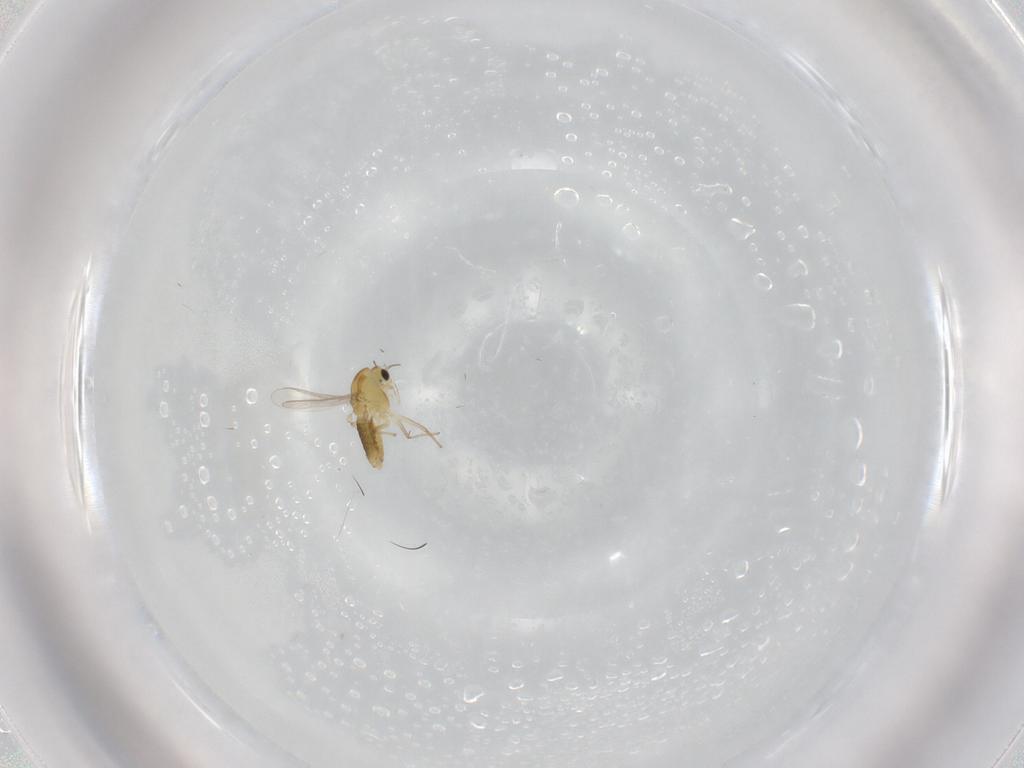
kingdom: Animalia
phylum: Arthropoda
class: Insecta
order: Diptera
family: Chironomidae
